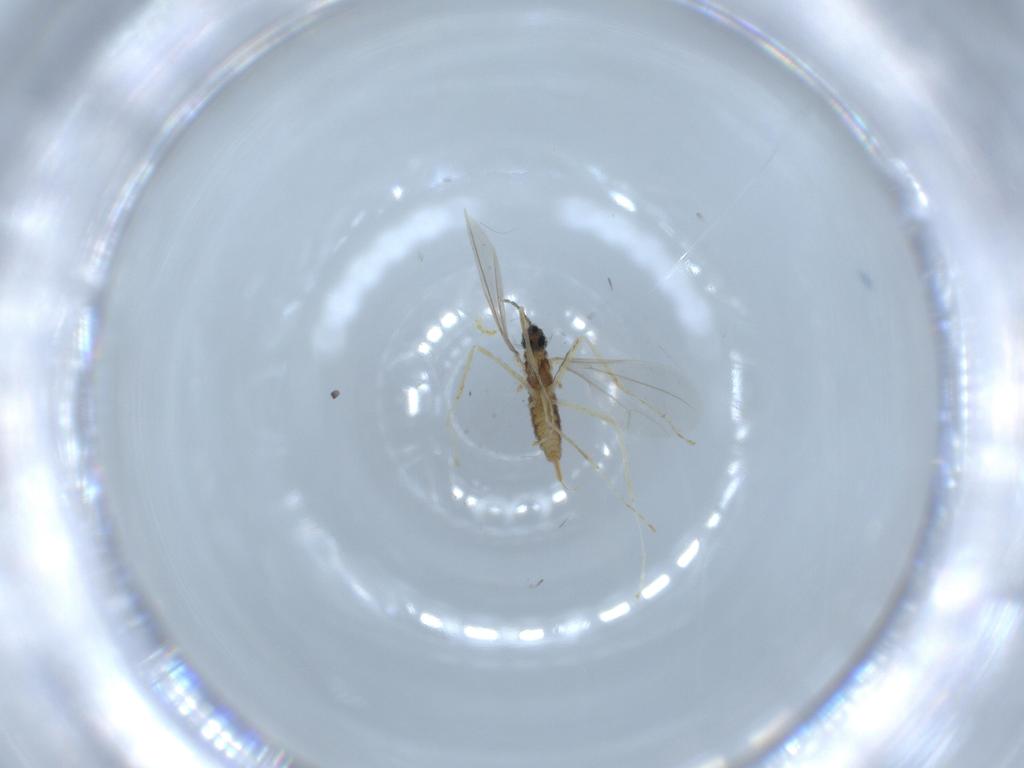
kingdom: Animalia
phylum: Arthropoda
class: Insecta
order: Diptera
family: Cecidomyiidae
